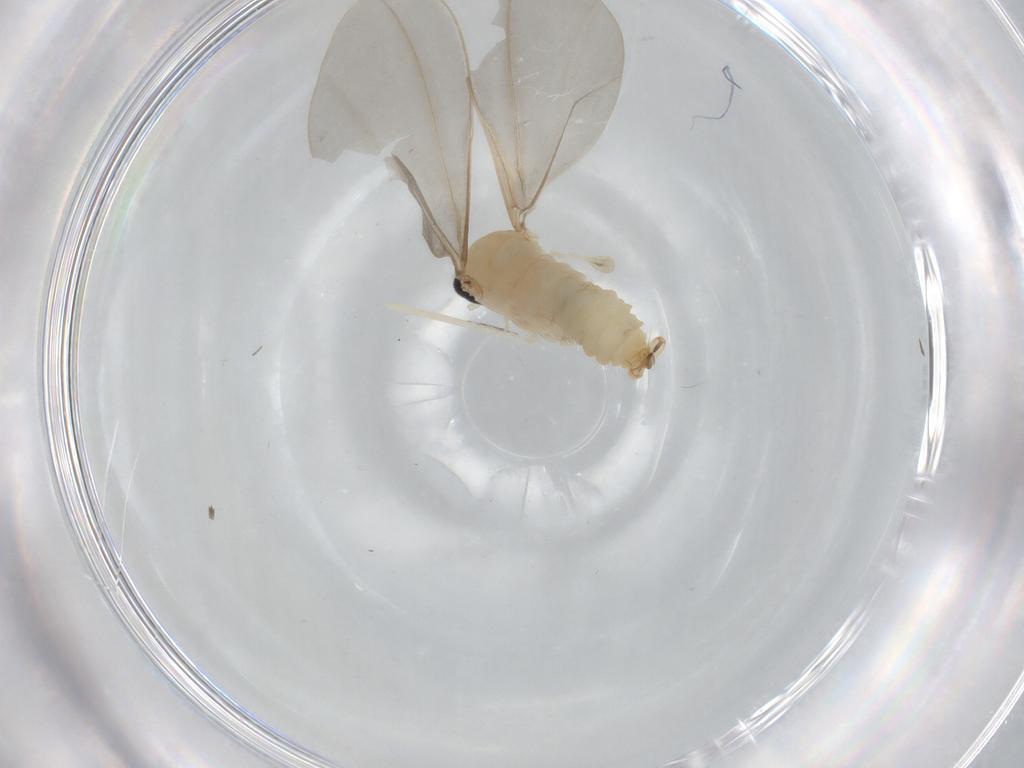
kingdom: Animalia
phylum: Arthropoda
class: Insecta
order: Diptera
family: Cecidomyiidae
